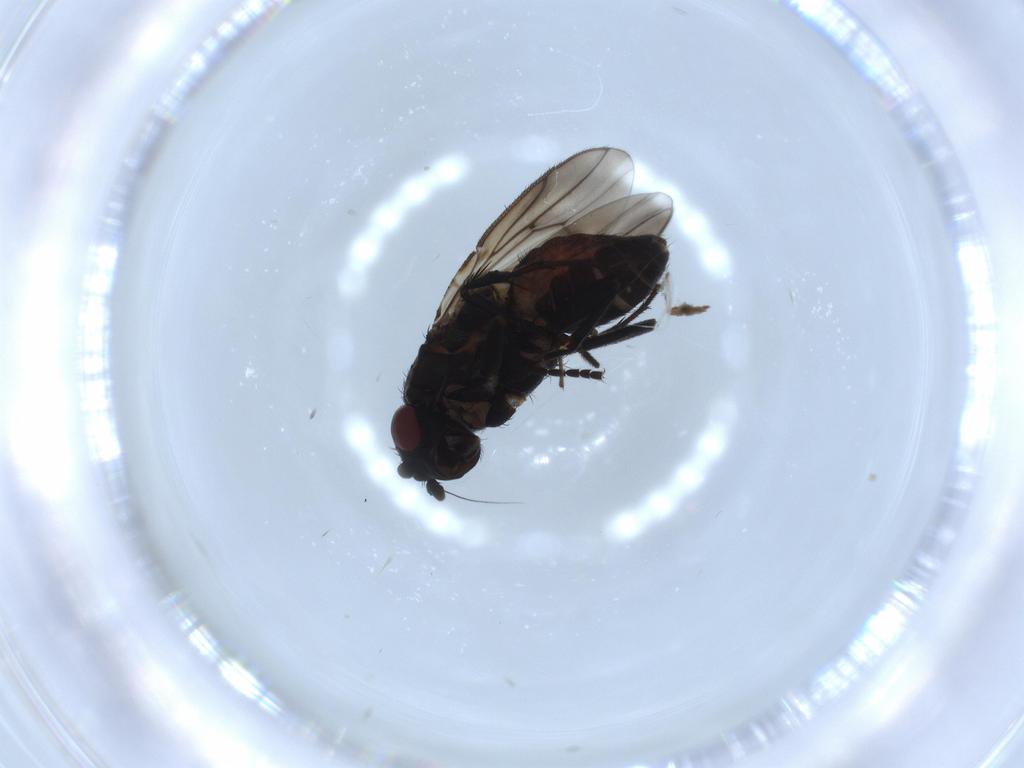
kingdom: Animalia
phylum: Arthropoda
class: Insecta
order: Diptera
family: Sphaeroceridae
